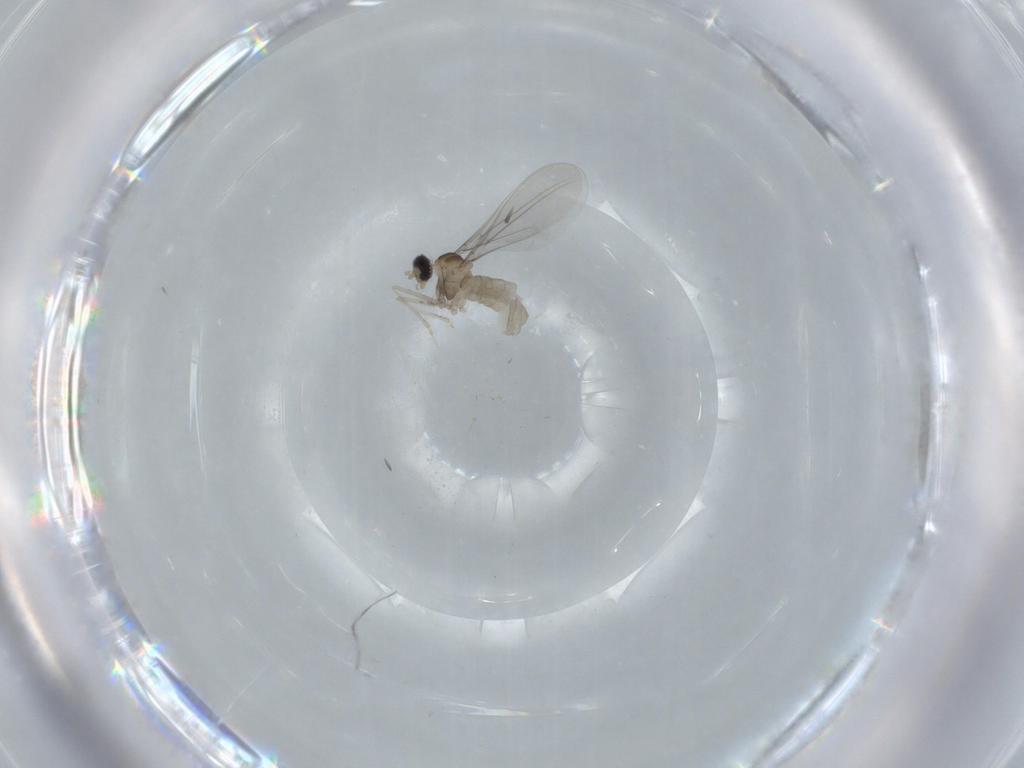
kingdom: Animalia
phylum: Arthropoda
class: Insecta
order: Diptera
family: Cecidomyiidae
